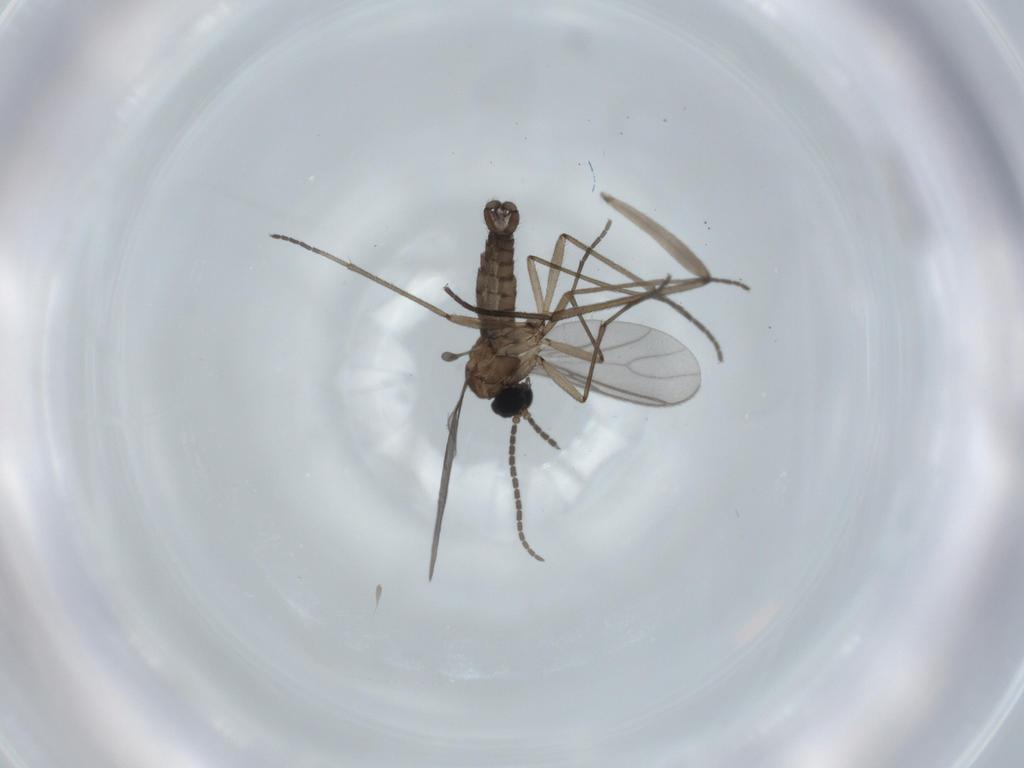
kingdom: Animalia
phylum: Arthropoda
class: Insecta
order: Diptera
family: Sciaridae
